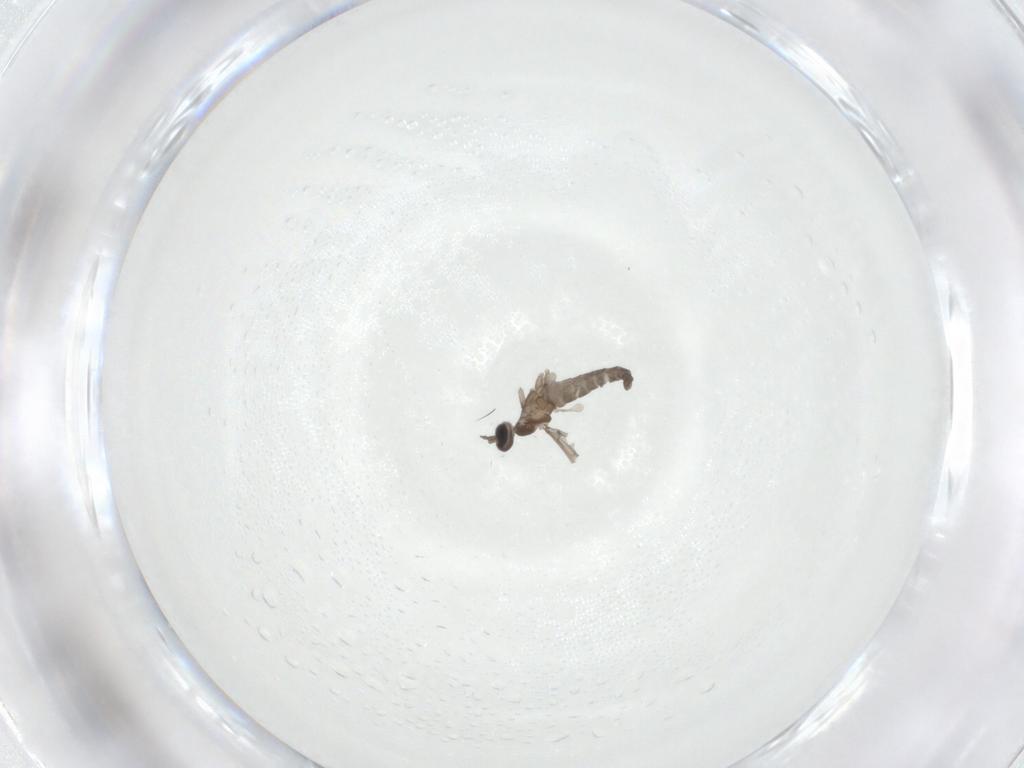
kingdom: Animalia
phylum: Arthropoda
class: Insecta
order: Diptera
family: Cecidomyiidae
